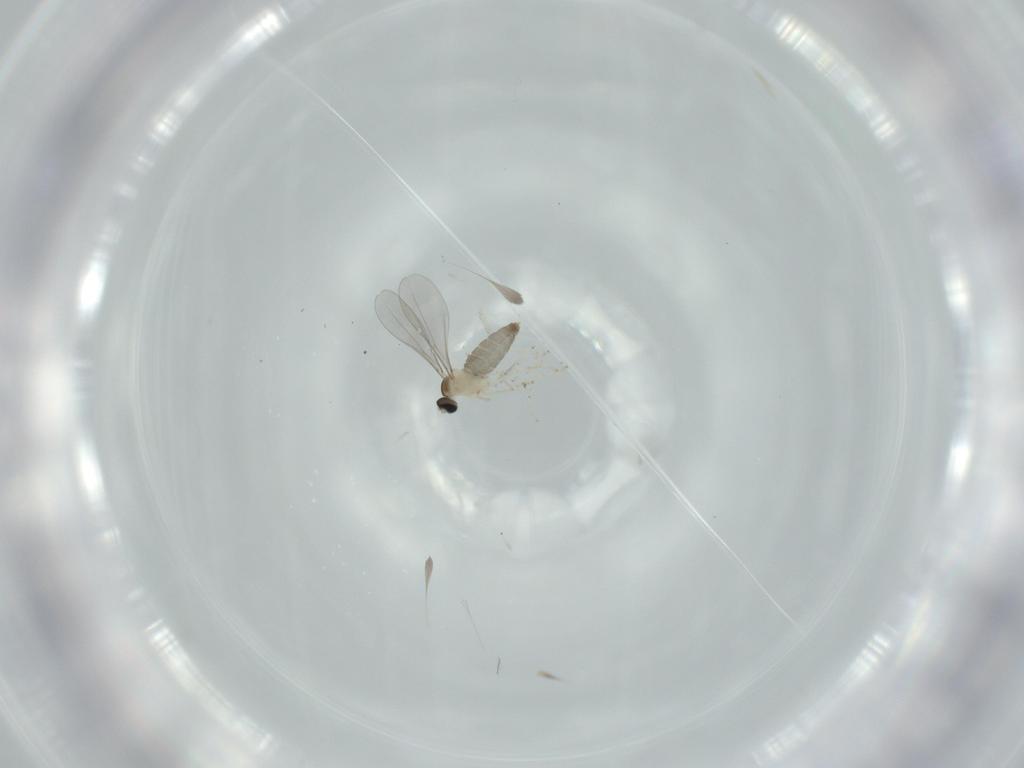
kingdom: Animalia
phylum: Arthropoda
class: Insecta
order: Diptera
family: Cecidomyiidae
